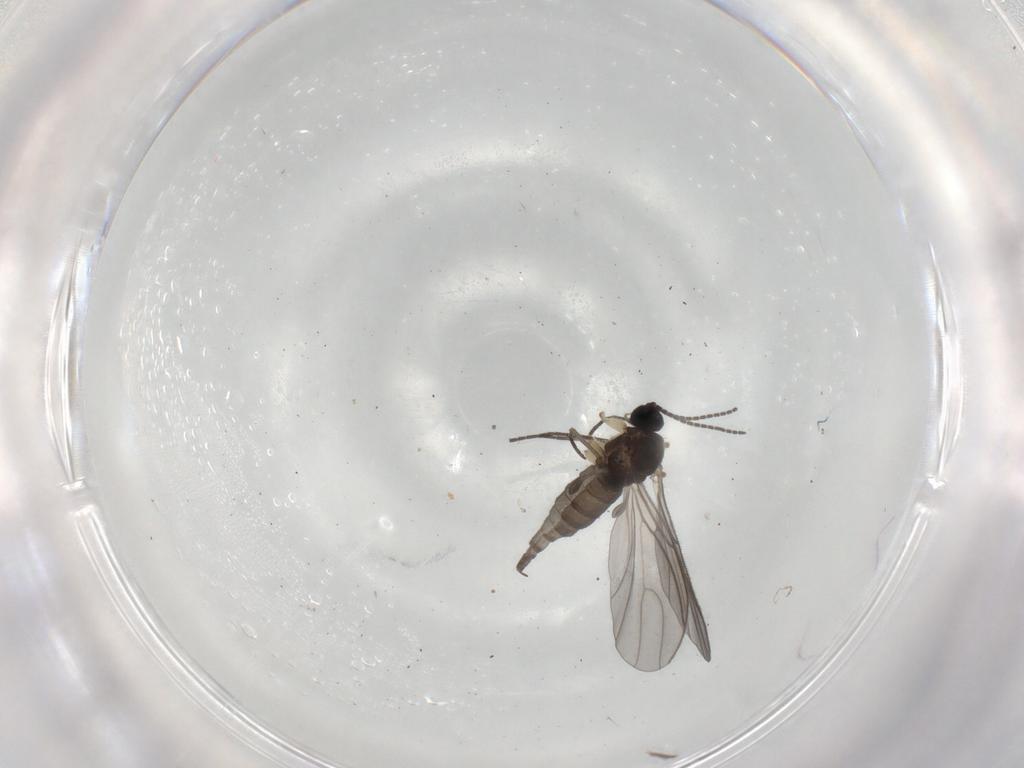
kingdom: Animalia
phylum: Arthropoda
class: Insecta
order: Diptera
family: Sciaridae
